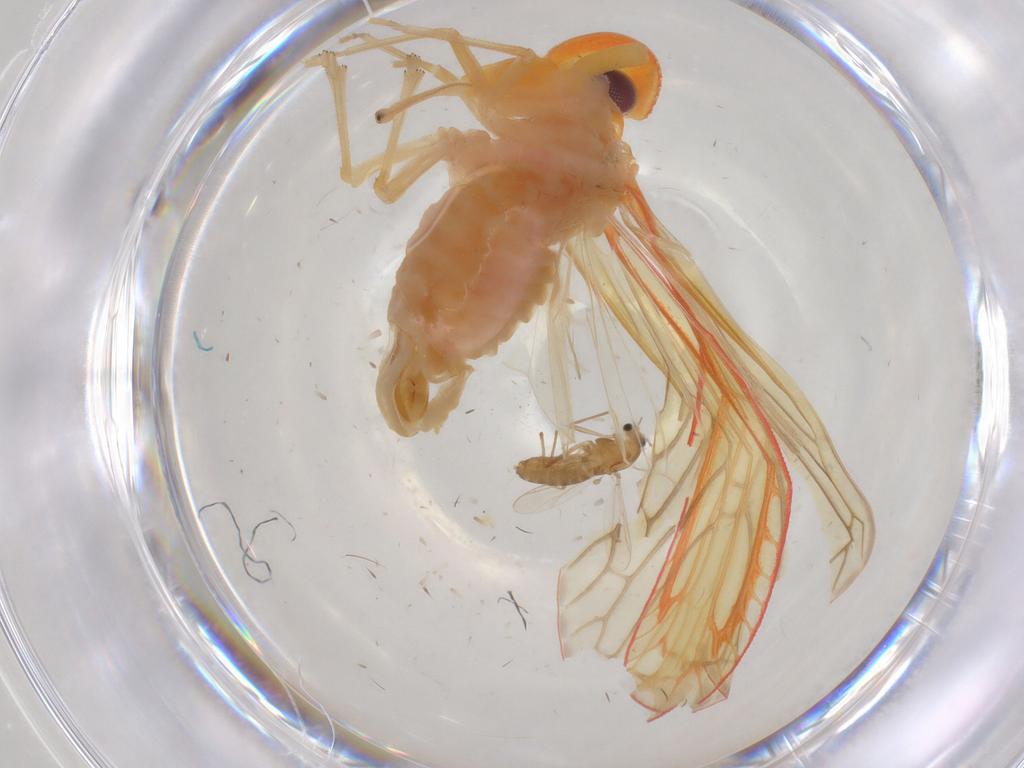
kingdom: Animalia
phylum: Arthropoda
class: Insecta
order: Diptera
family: Chironomidae
